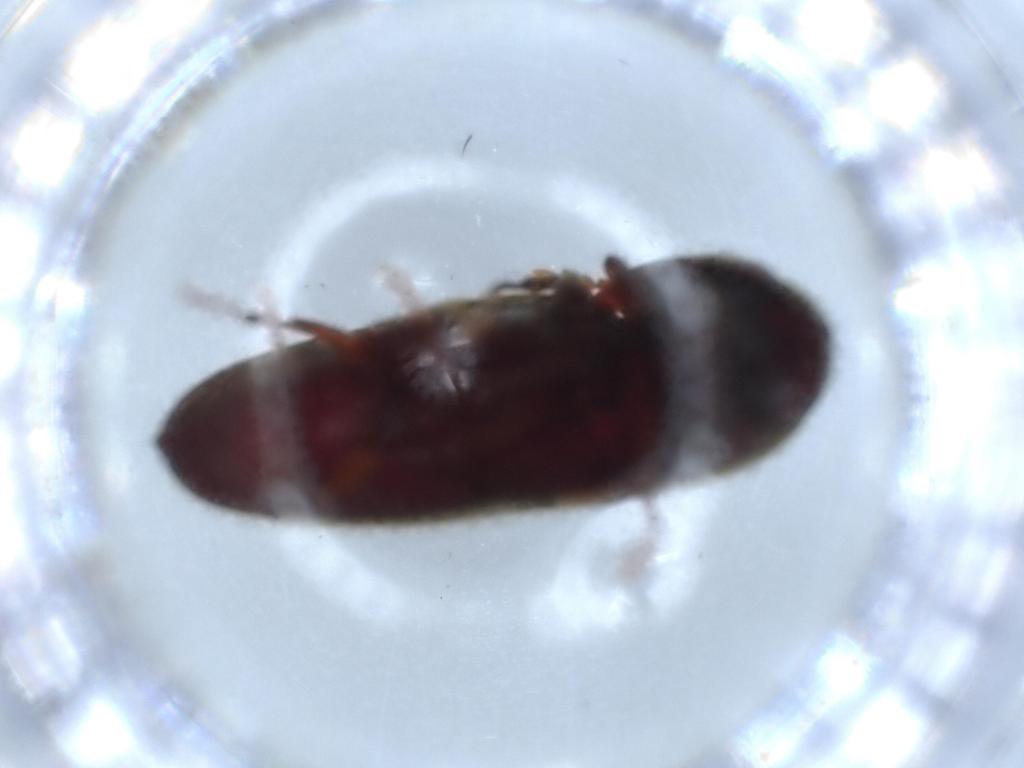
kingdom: Animalia
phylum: Arthropoda
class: Insecta
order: Coleoptera
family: Eucnemidae
